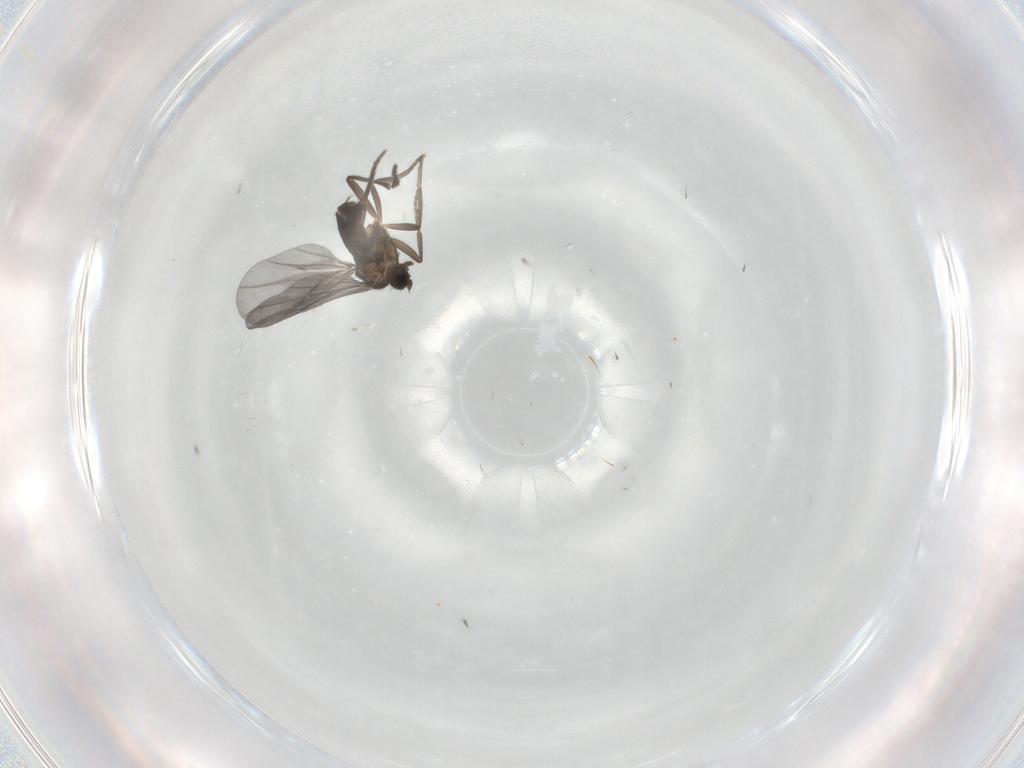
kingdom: Animalia
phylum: Arthropoda
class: Insecta
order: Diptera
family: Phoridae
